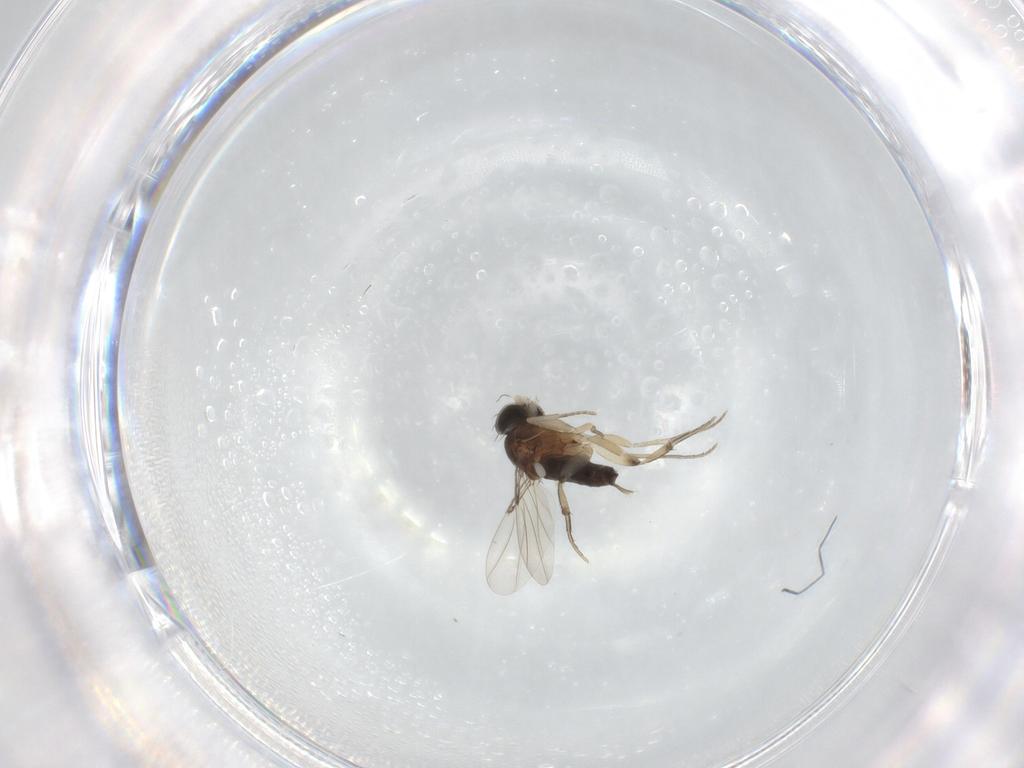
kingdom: Animalia
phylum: Arthropoda
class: Insecta
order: Diptera
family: Phoridae
